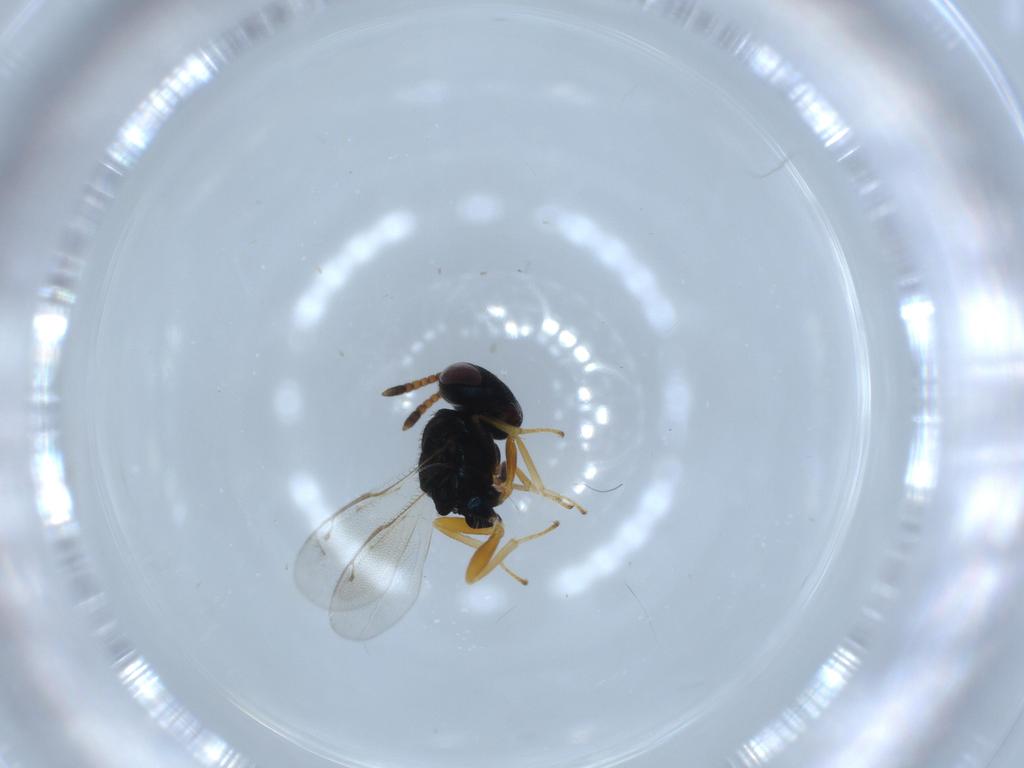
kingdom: Animalia
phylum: Arthropoda
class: Insecta
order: Hymenoptera
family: Pteromalidae
